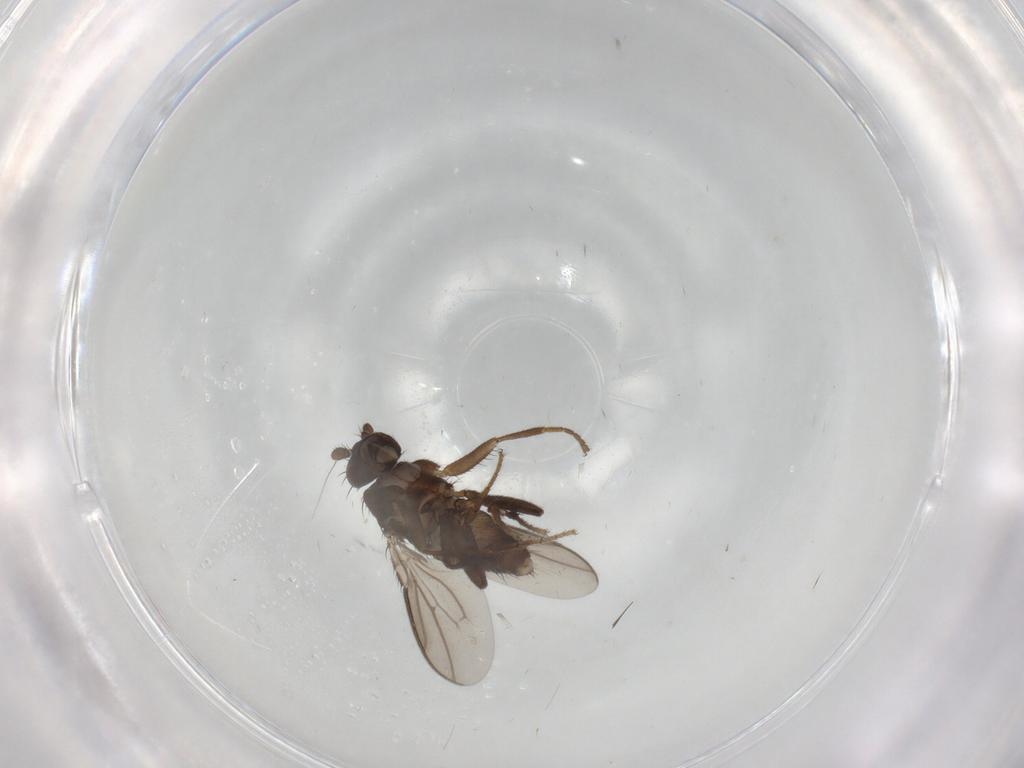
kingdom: Animalia
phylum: Arthropoda
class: Insecta
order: Diptera
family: Sphaeroceridae
